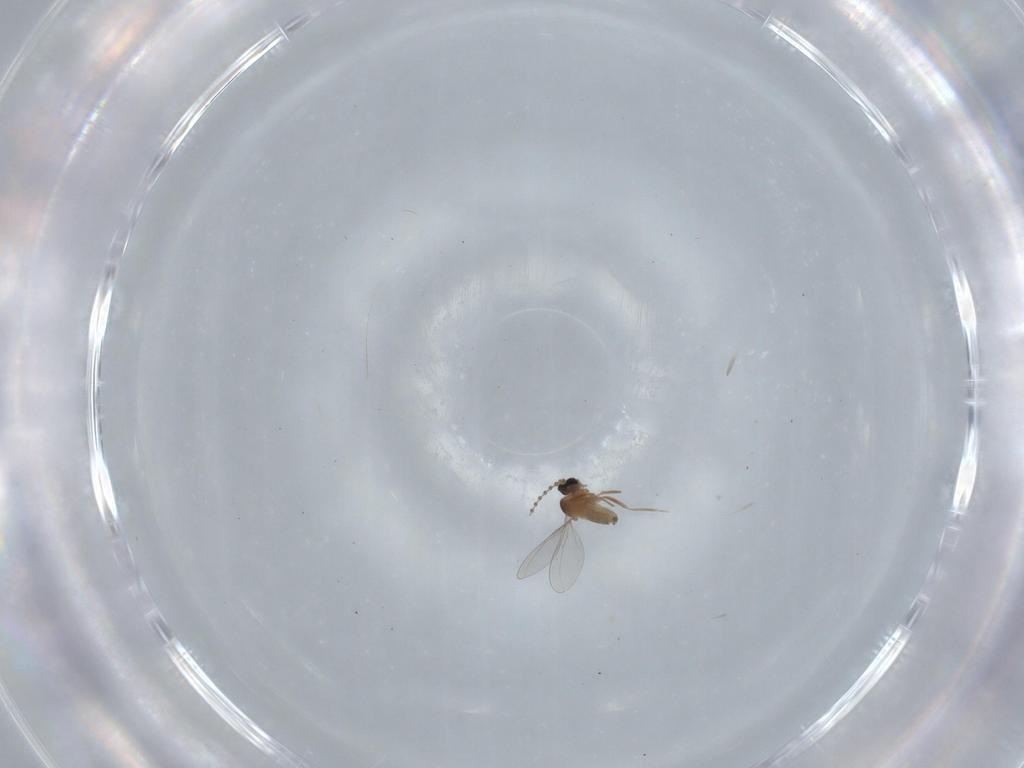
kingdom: Animalia
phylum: Arthropoda
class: Insecta
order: Diptera
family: Cecidomyiidae
